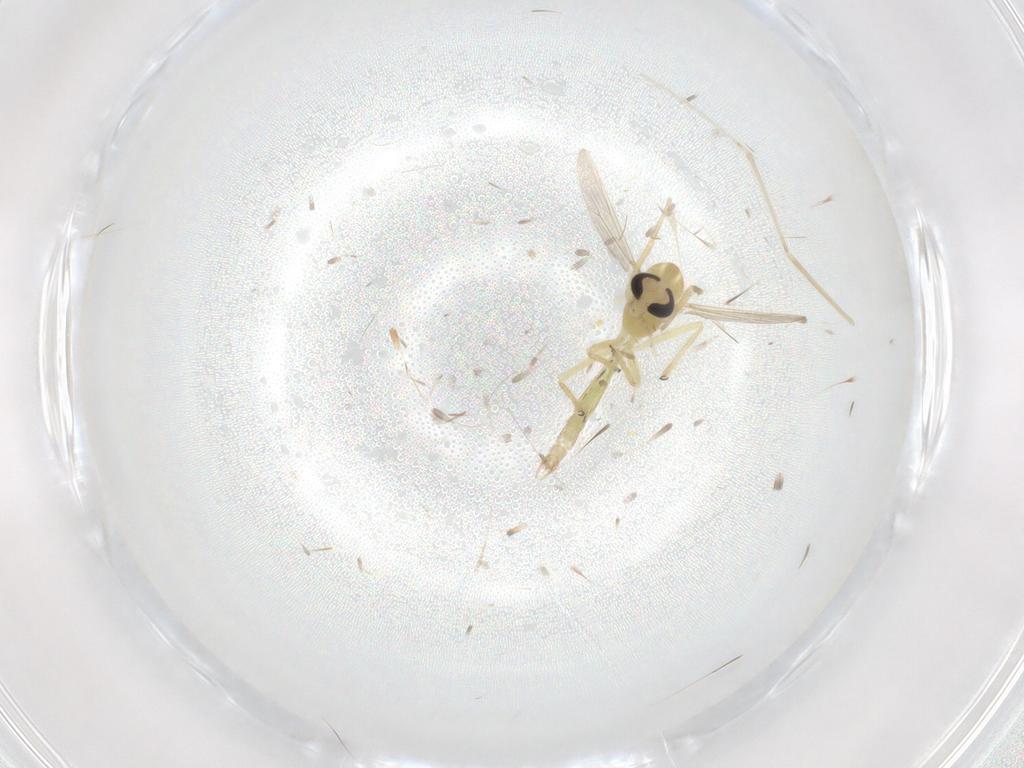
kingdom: Animalia
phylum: Arthropoda
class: Insecta
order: Diptera
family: Chironomidae
